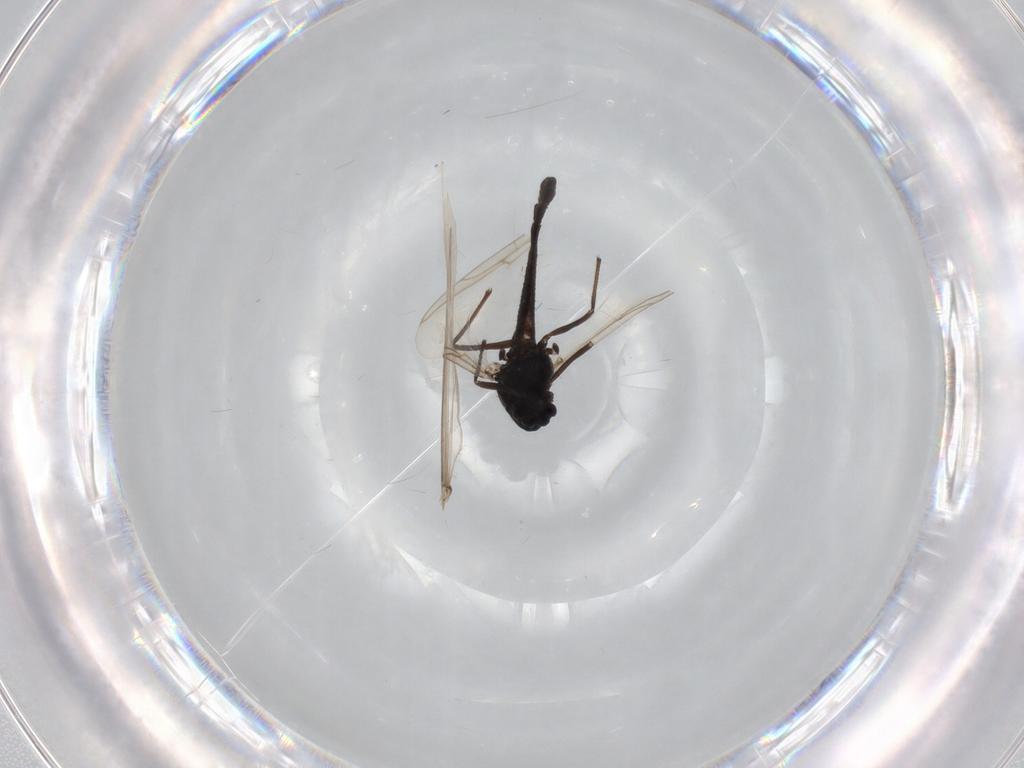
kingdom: Animalia
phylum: Arthropoda
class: Insecta
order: Diptera
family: Chironomidae
